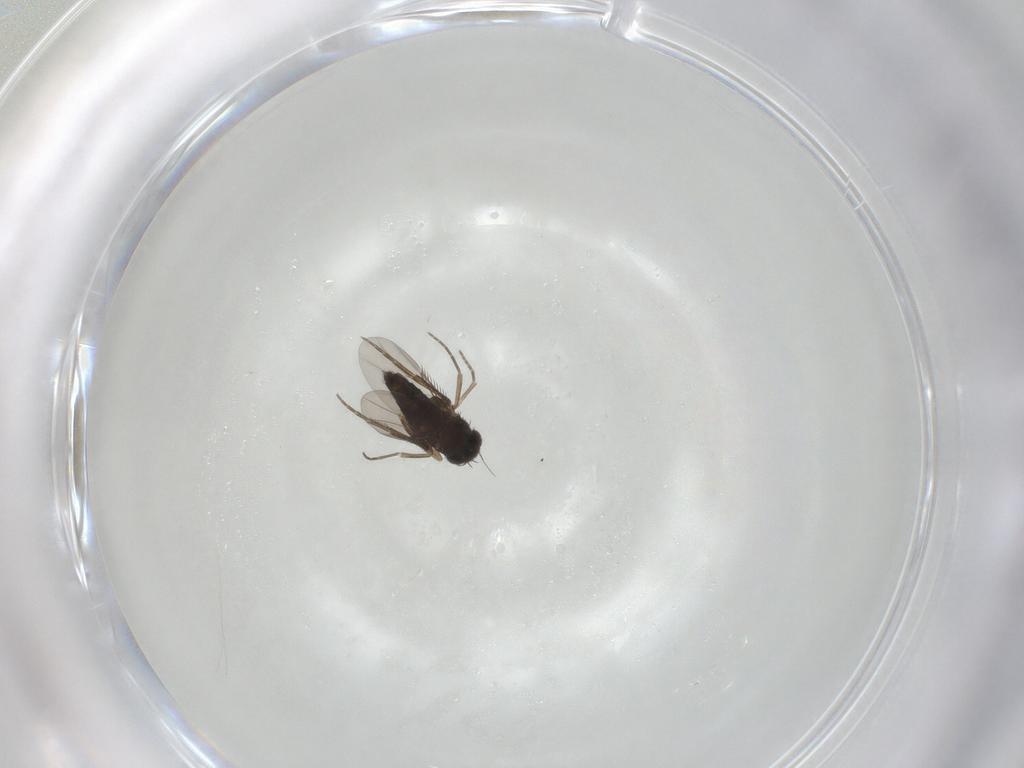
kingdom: Animalia
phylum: Arthropoda
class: Insecta
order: Diptera
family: Phoridae
